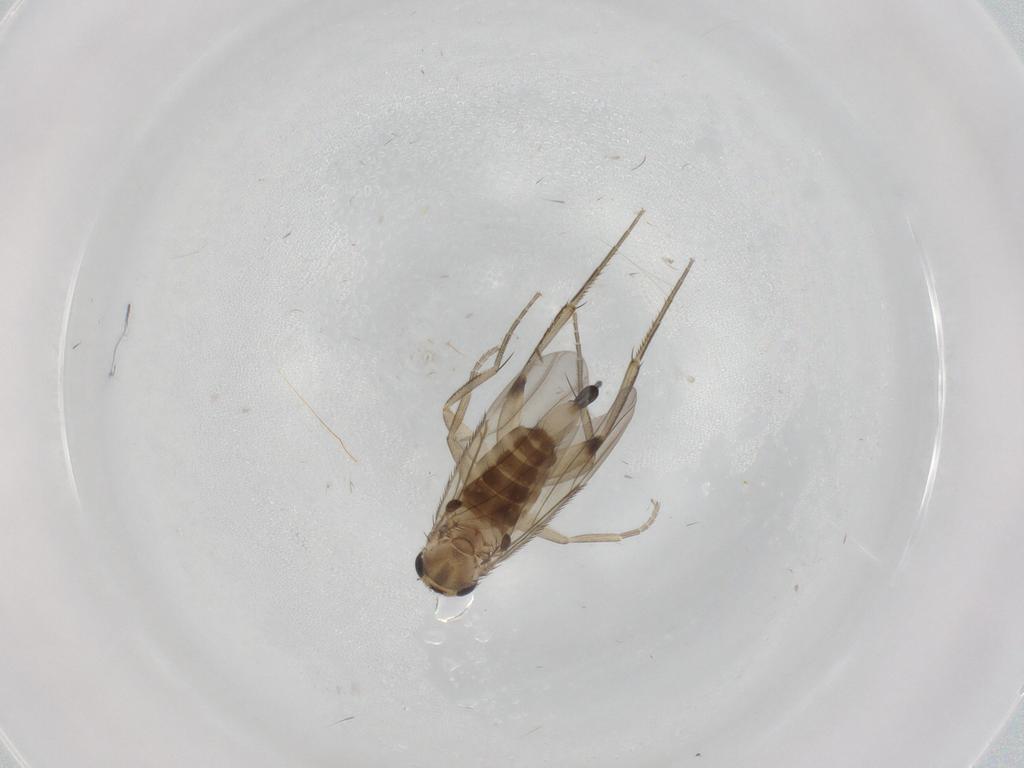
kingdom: Animalia
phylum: Arthropoda
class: Insecta
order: Diptera
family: Phoridae
